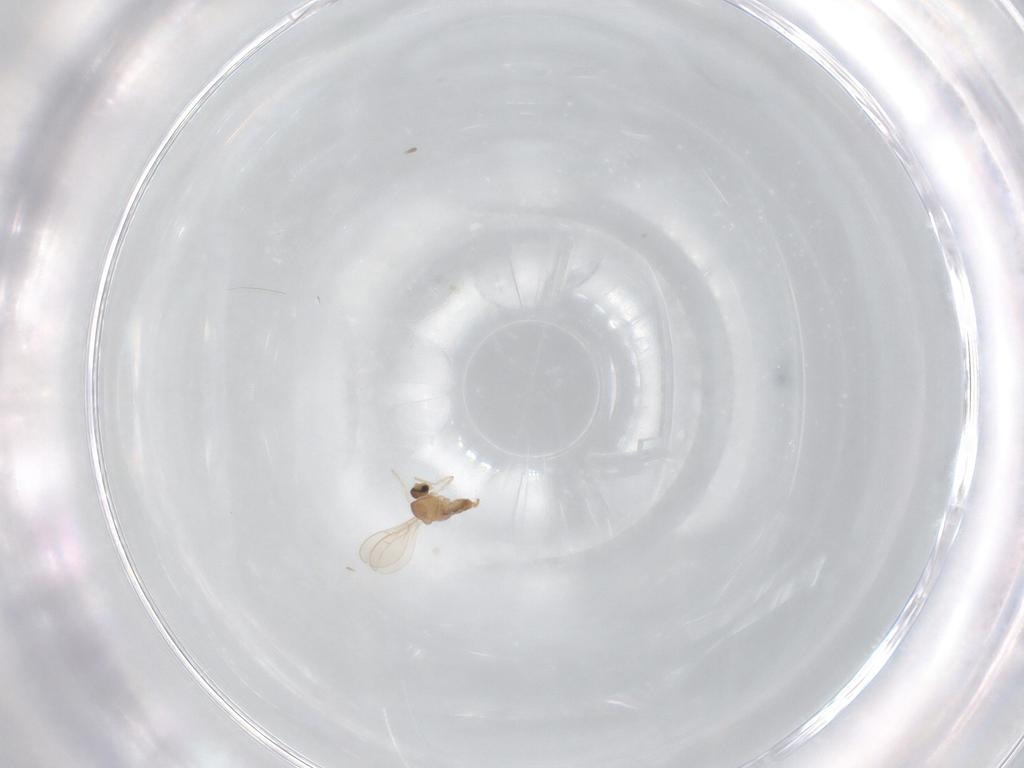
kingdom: Animalia
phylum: Arthropoda
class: Insecta
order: Diptera
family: Cecidomyiidae
